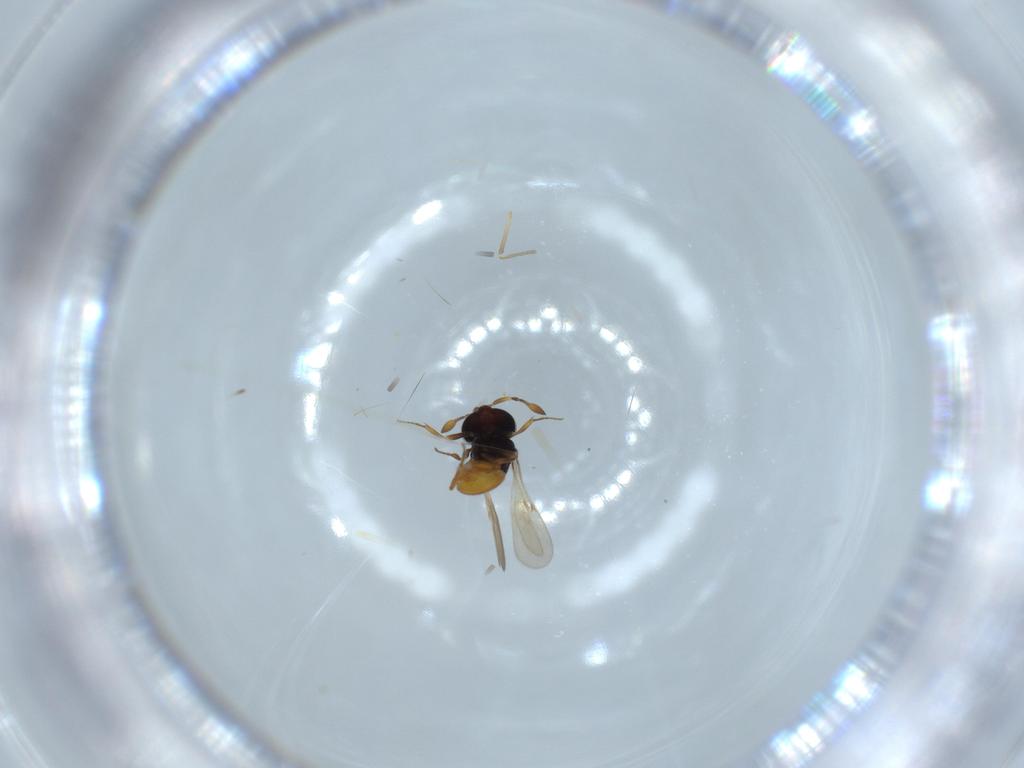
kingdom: Animalia
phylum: Arthropoda
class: Insecta
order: Hymenoptera
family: Scelionidae
